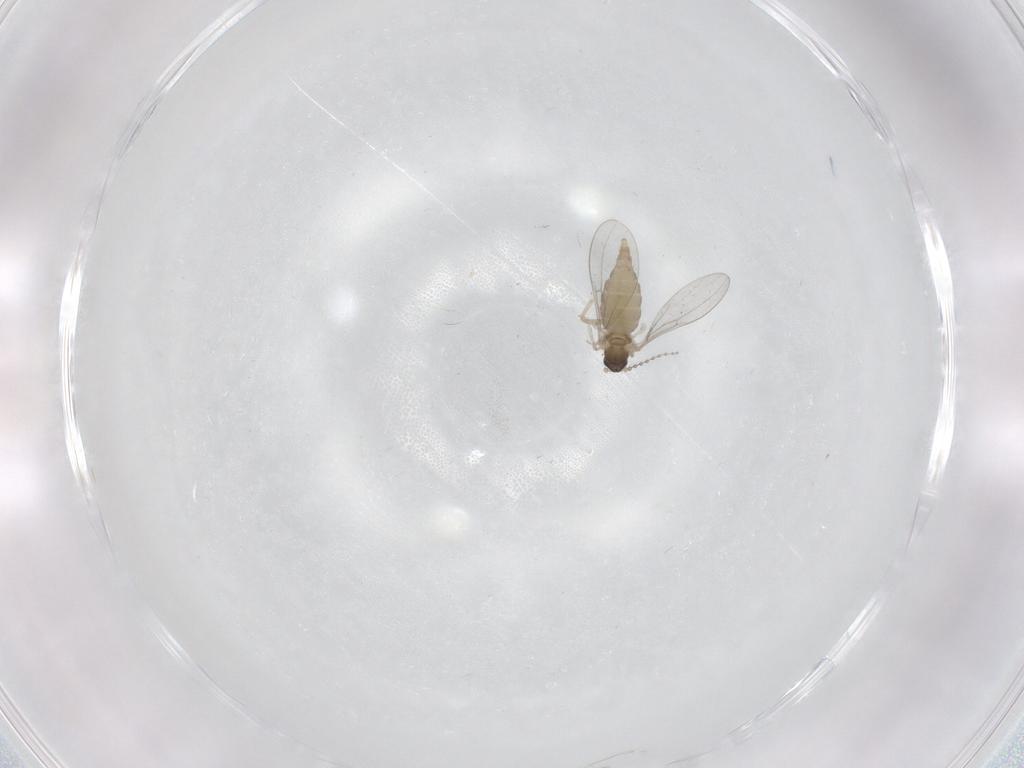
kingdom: Animalia
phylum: Arthropoda
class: Insecta
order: Diptera
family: Cecidomyiidae
